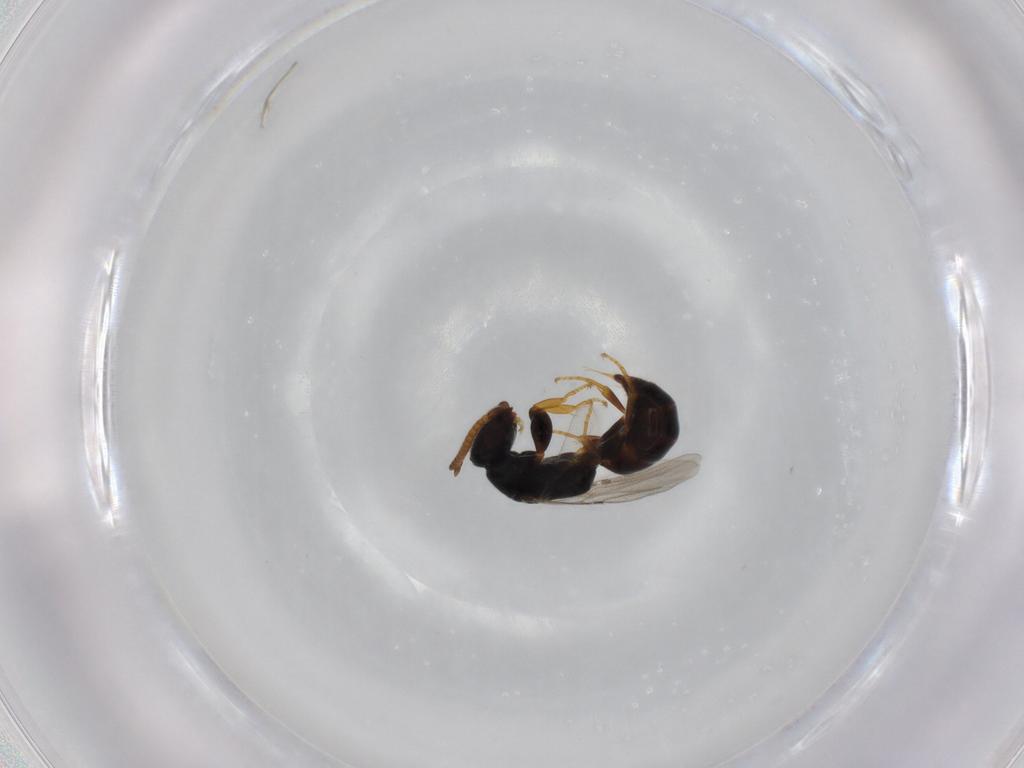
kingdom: Animalia
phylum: Arthropoda
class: Insecta
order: Hymenoptera
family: Bethylidae
